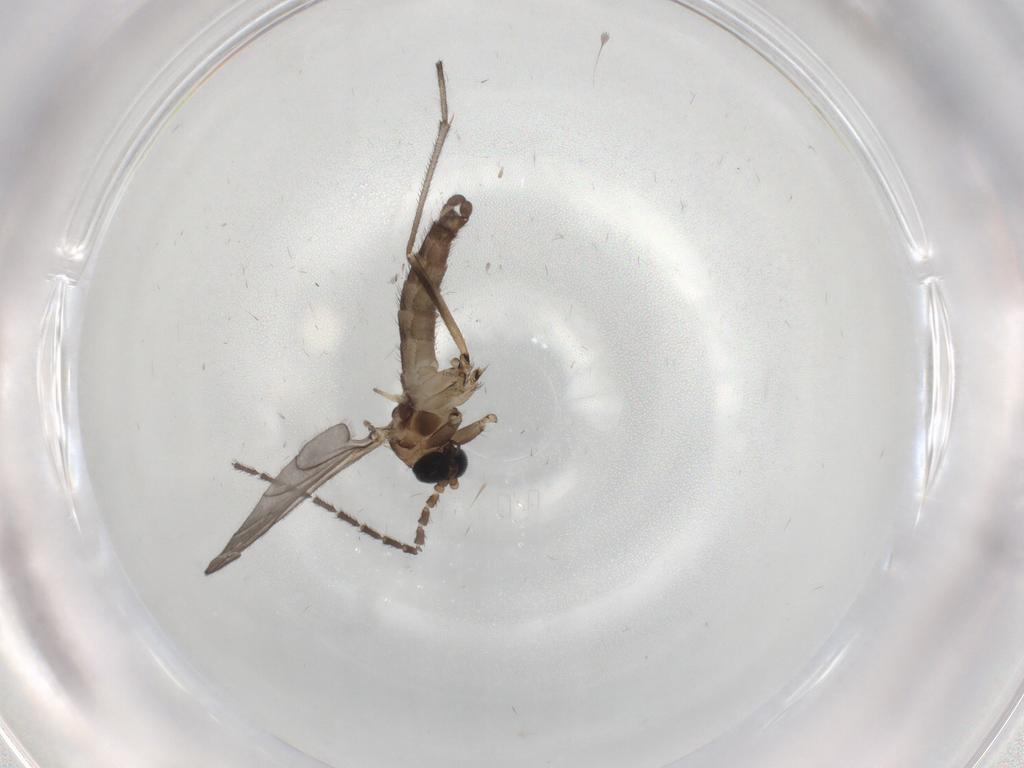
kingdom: Animalia
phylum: Arthropoda
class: Insecta
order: Diptera
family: Sciaridae
